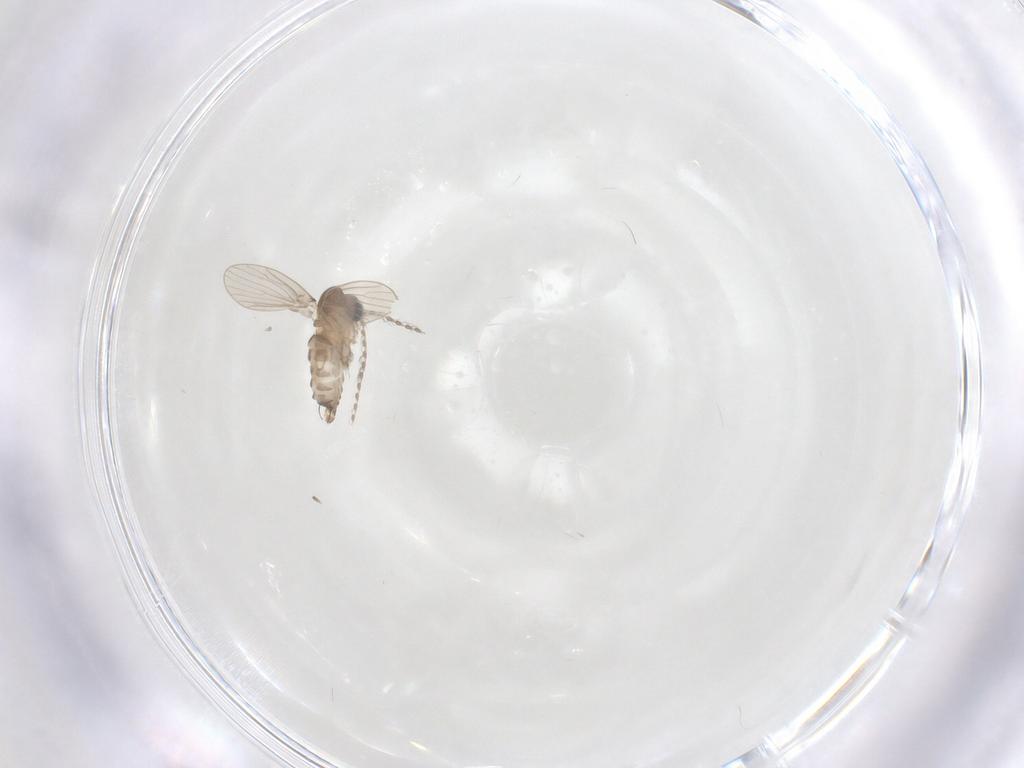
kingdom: Animalia
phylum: Arthropoda
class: Insecta
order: Diptera
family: Psychodidae
